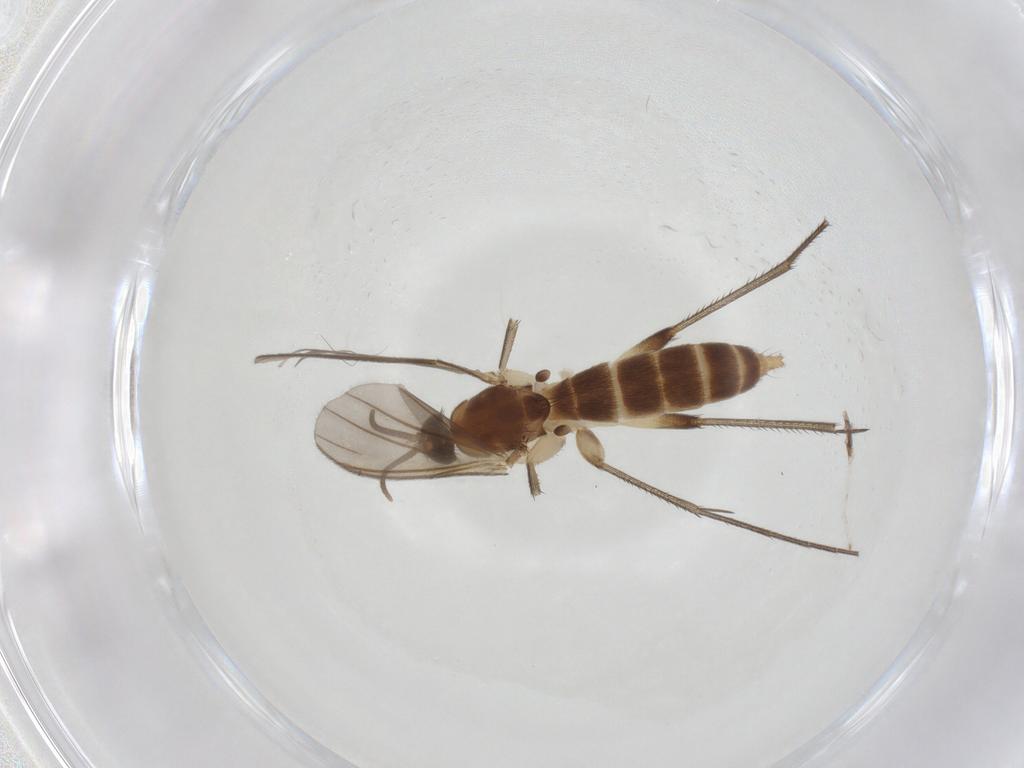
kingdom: Animalia
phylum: Arthropoda
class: Insecta
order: Diptera
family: Mycetophilidae
